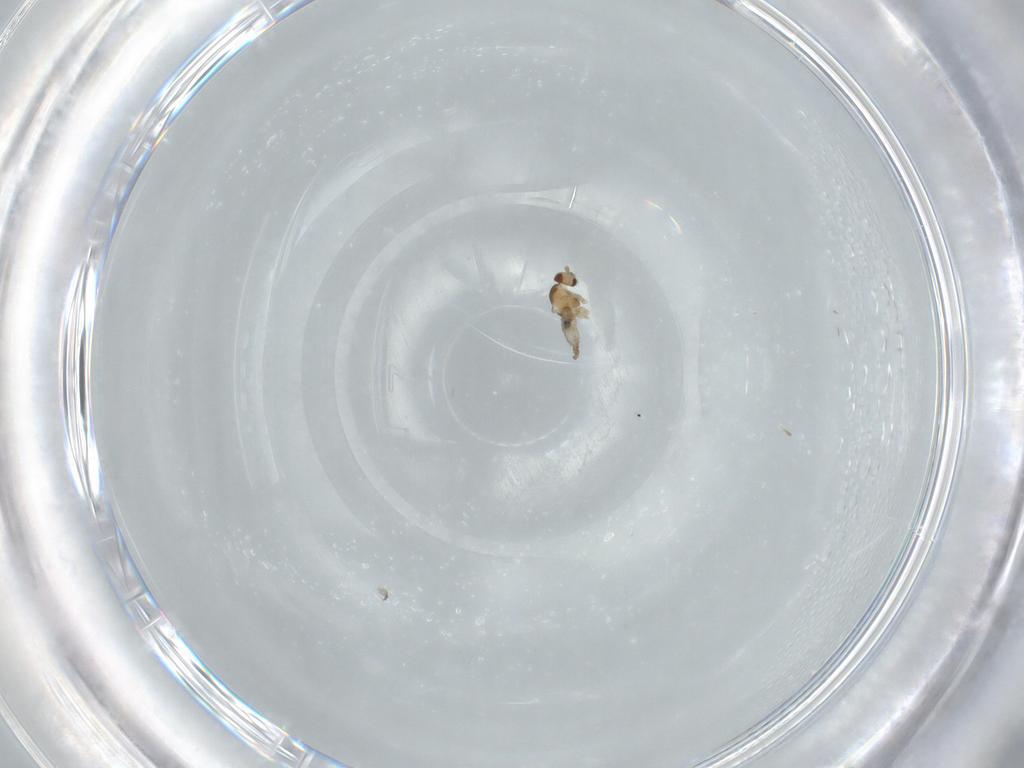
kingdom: Animalia
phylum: Arthropoda
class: Insecta
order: Diptera
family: Cecidomyiidae
